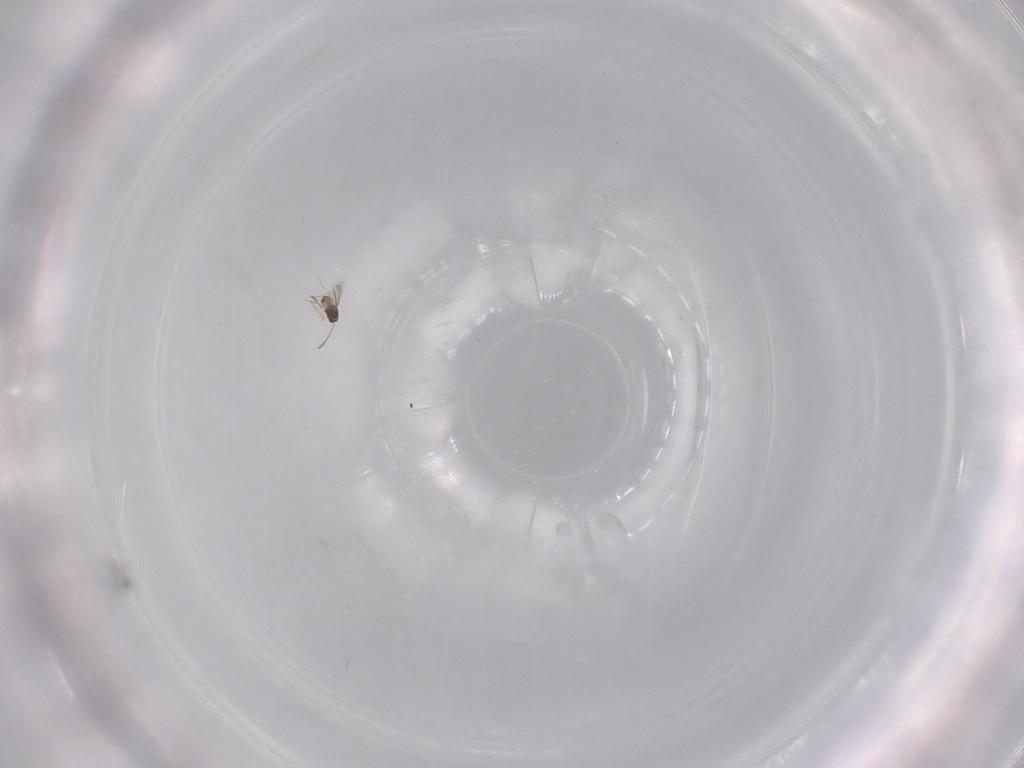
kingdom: Animalia
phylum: Arthropoda
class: Insecta
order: Hymenoptera
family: Mymaridae
